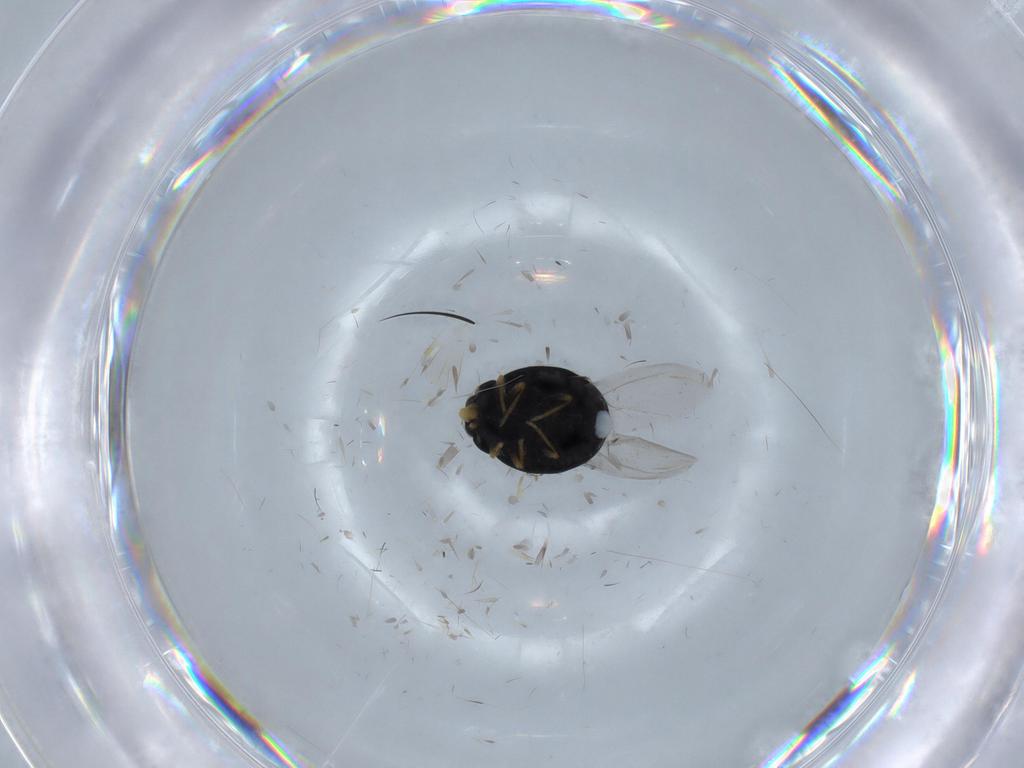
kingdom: Animalia
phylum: Arthropoda
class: Insecta
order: Coleoptera
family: Coccinellidae
